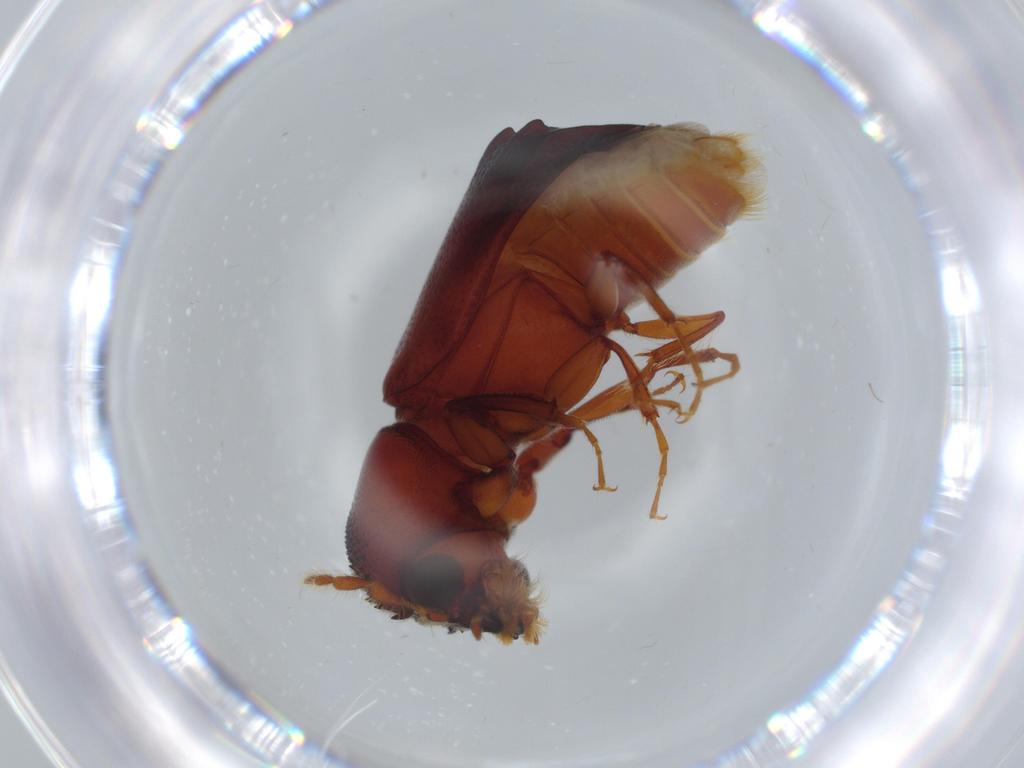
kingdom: Animalia
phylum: Arthropoda
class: Insecta
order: Coleoptera
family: Bostrichidae
